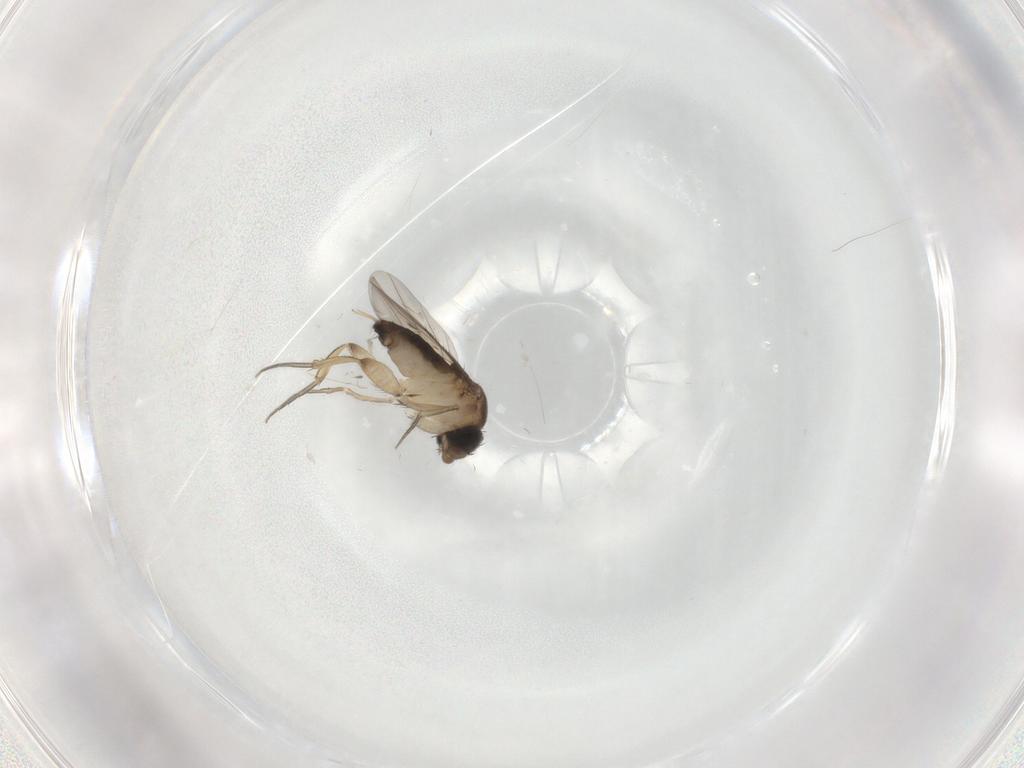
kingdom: Animalia
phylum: Arthropoda
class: Insecta
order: Diptera
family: Phoridae
